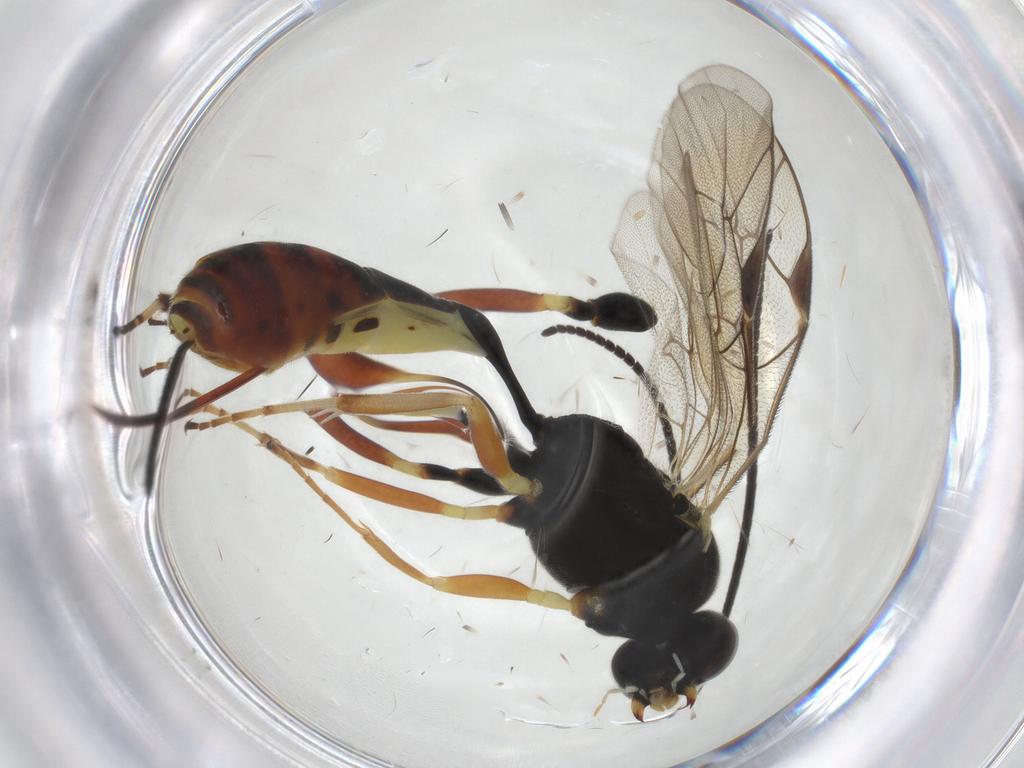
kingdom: Animalia
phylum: Arthropoda
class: Insecta
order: Hymenoptera
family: Ichneumonidae
